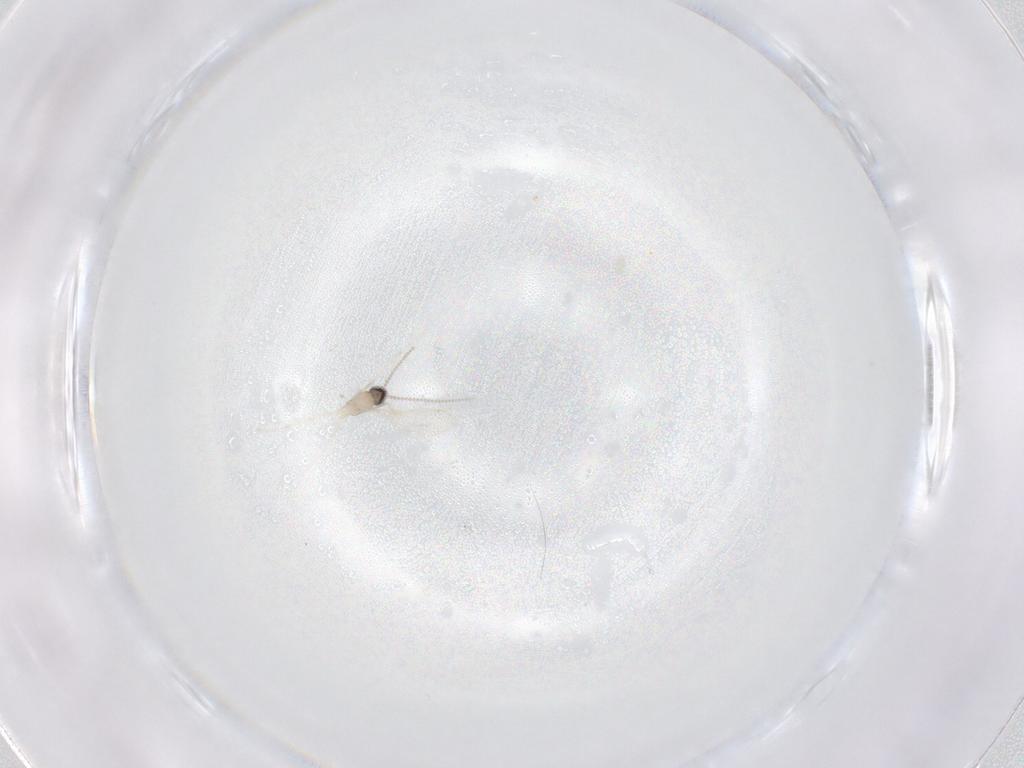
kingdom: Animalia
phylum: Arthropoda
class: Insecta
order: Diptera
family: Cecidomyiidae
